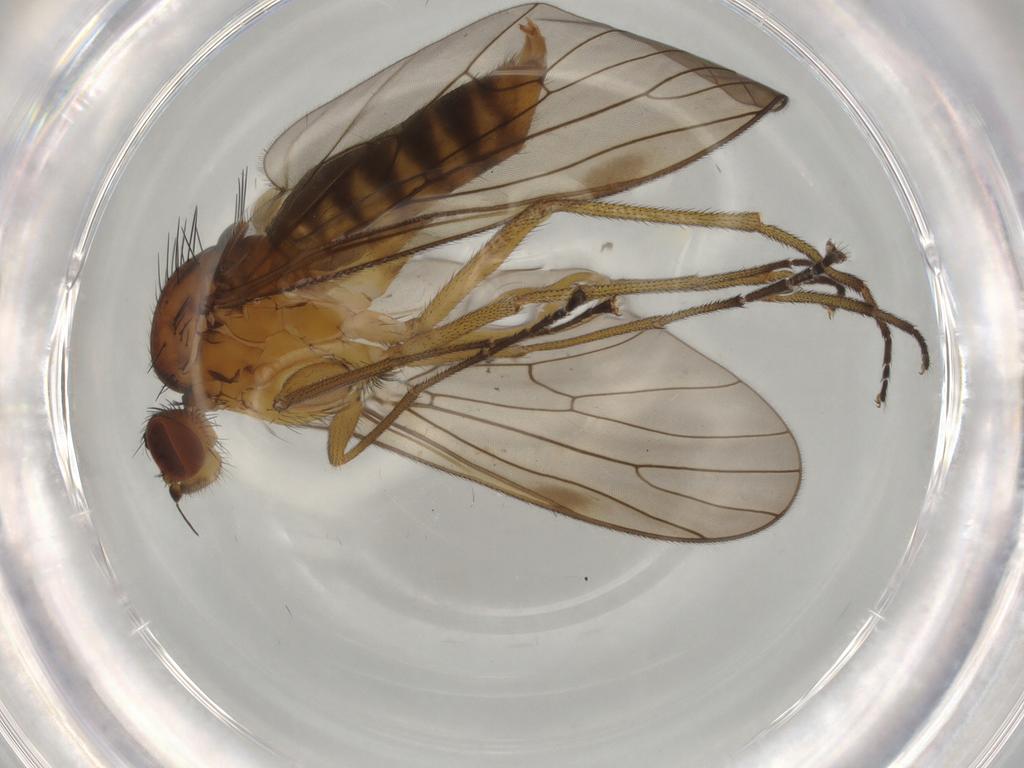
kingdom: Animalia
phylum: Arthropoda
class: Insecta
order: Diptera
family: Brachystomatidae
